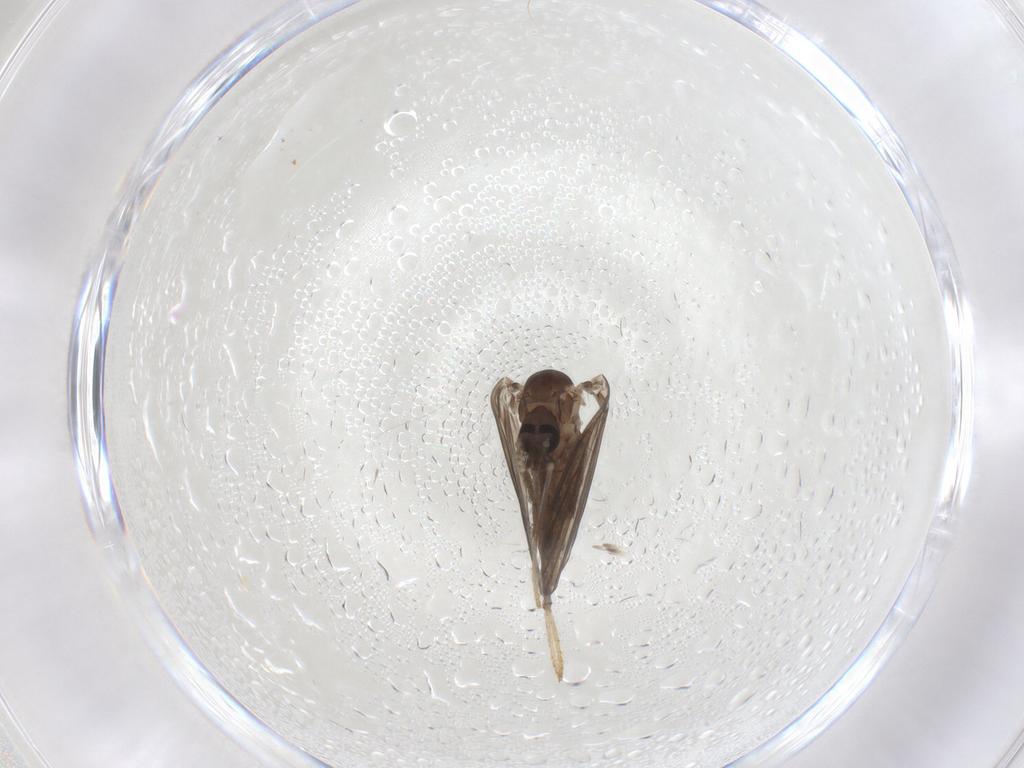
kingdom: Animalia
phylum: Arthropoda
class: Insecta
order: Diptera
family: Psychodidae
